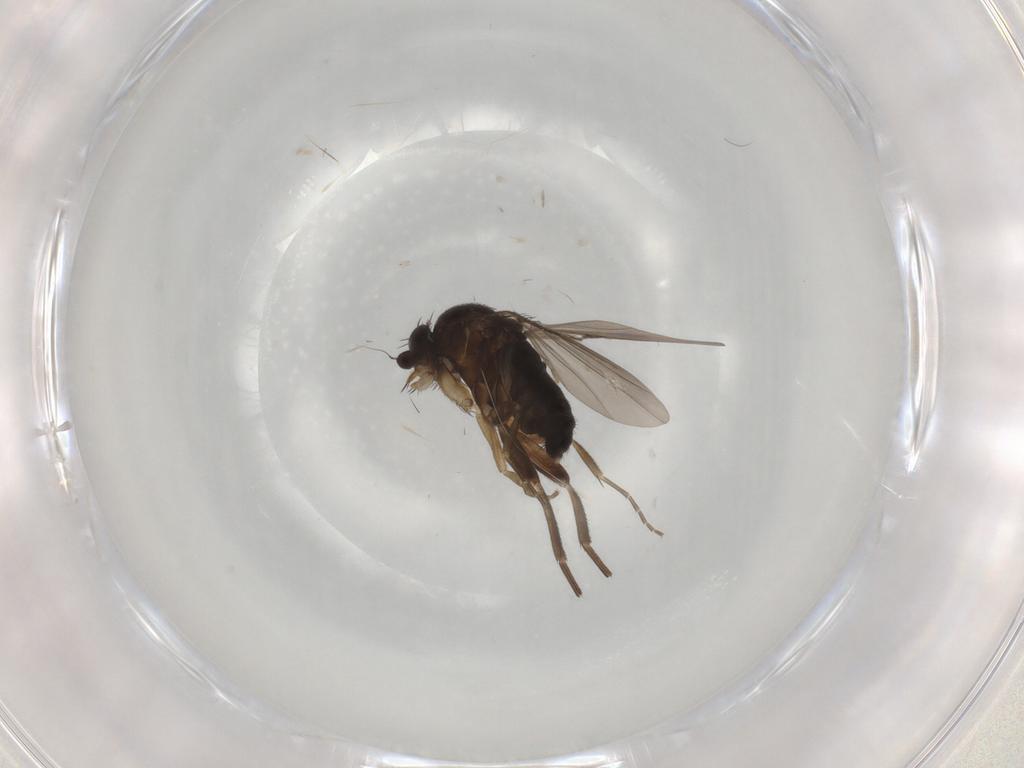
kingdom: Animalia
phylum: Arthropoda
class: Insecta
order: Diptera
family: Phoridae
